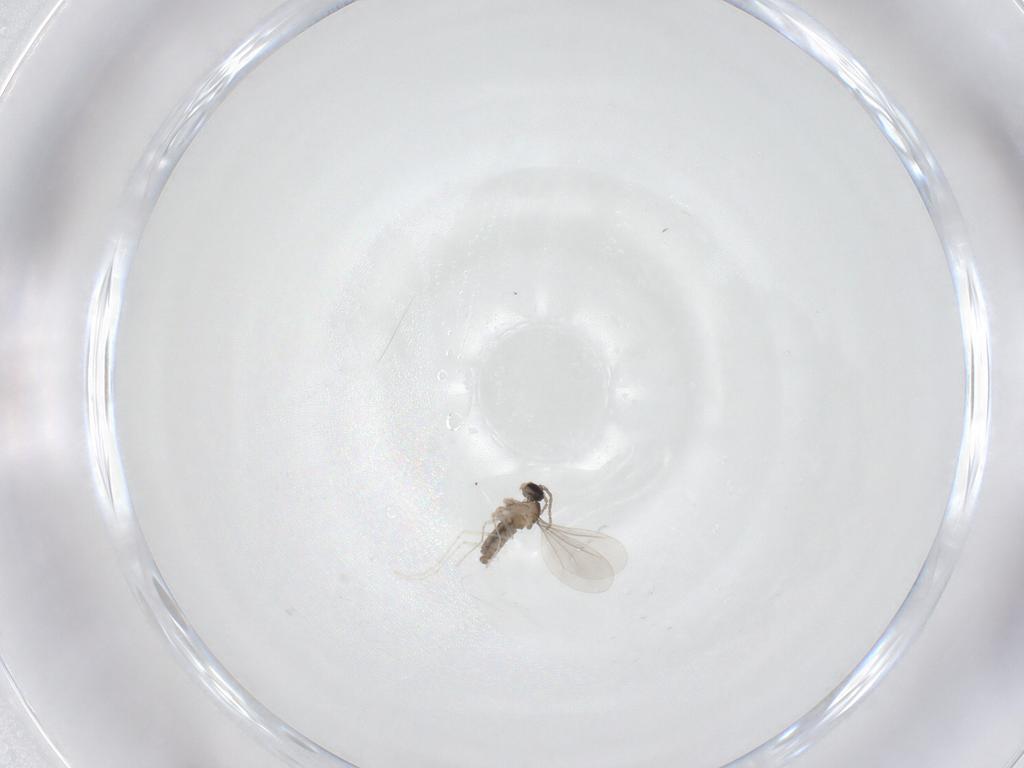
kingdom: Animalia
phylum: Arthropoda
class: Insecta
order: Diptera
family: Cecidomyiidae
